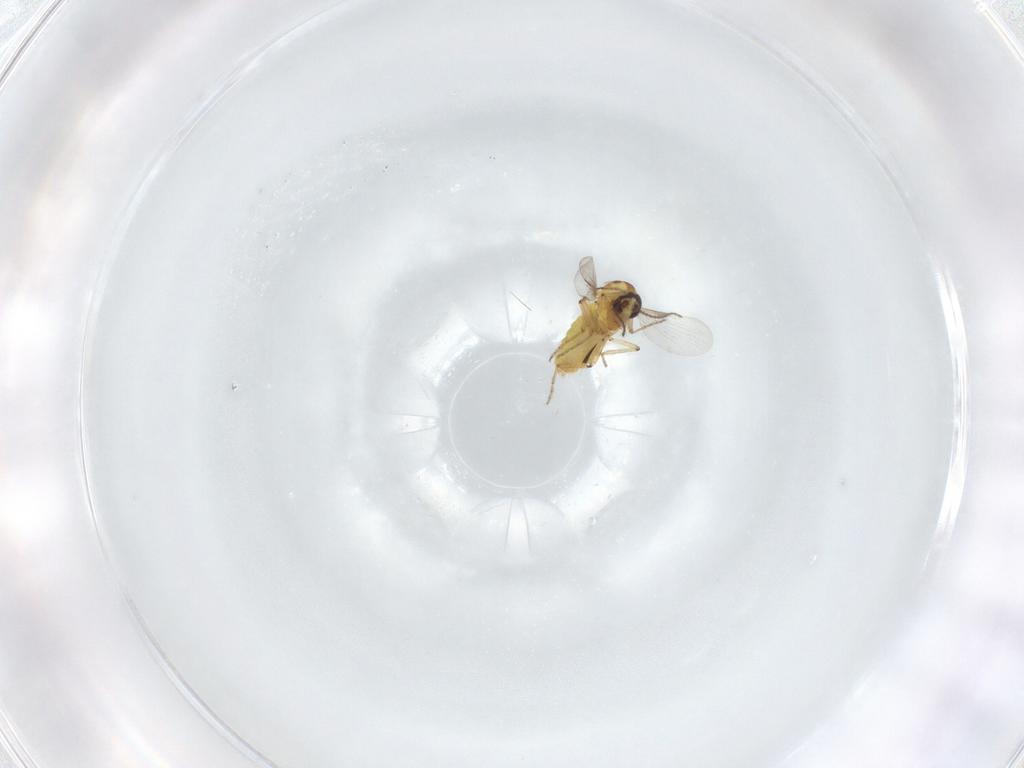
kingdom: Animalia
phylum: Arthropoda
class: Insecta
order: Diptera
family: Ceratopogonidae
